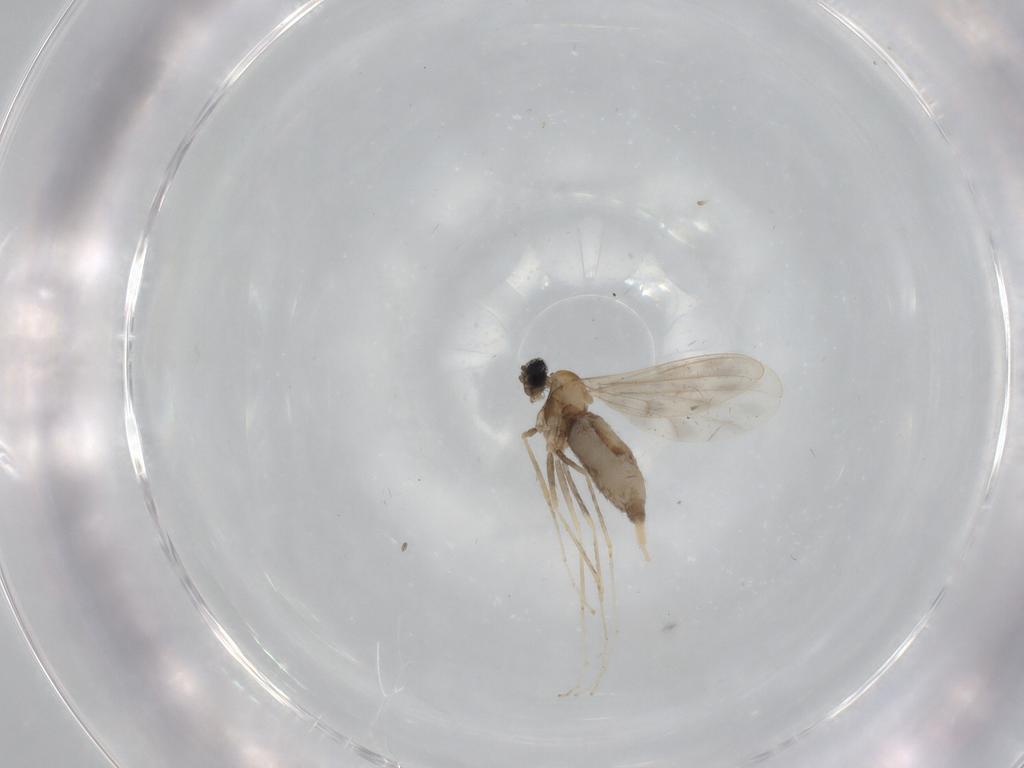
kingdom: Animalia
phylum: Arthropoda
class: Insecta
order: Diptera
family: Cecidomyiidae
